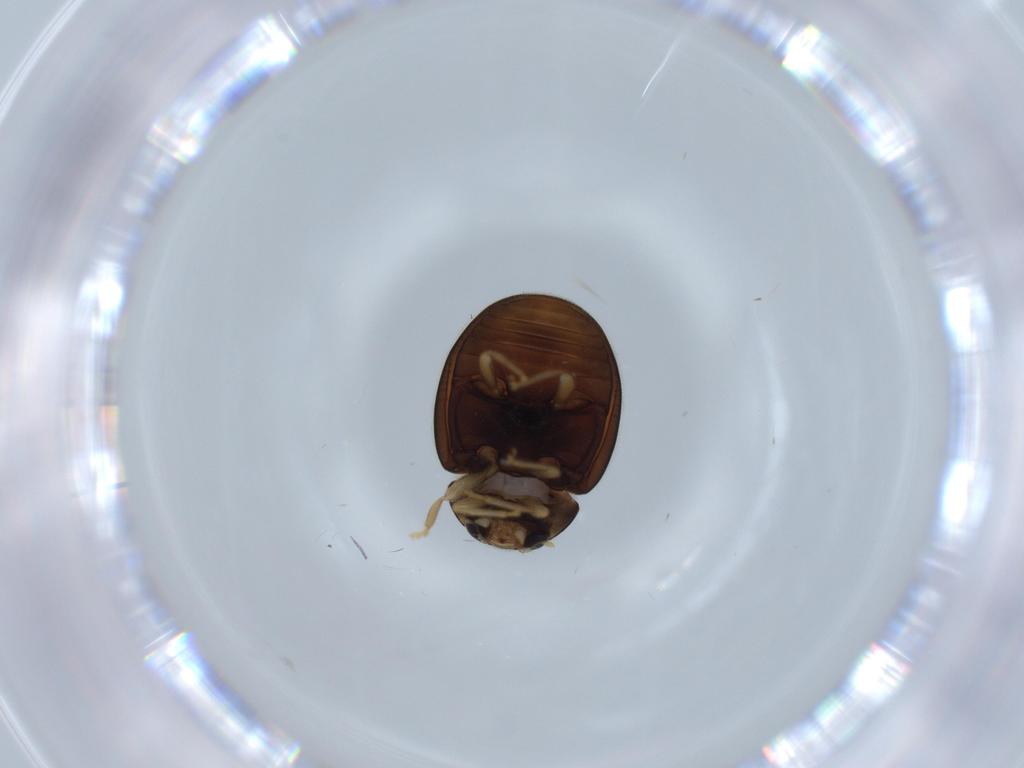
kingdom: Animalia
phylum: Arthropoda
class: Insecta
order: Coleoptera
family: Coccinellidae
